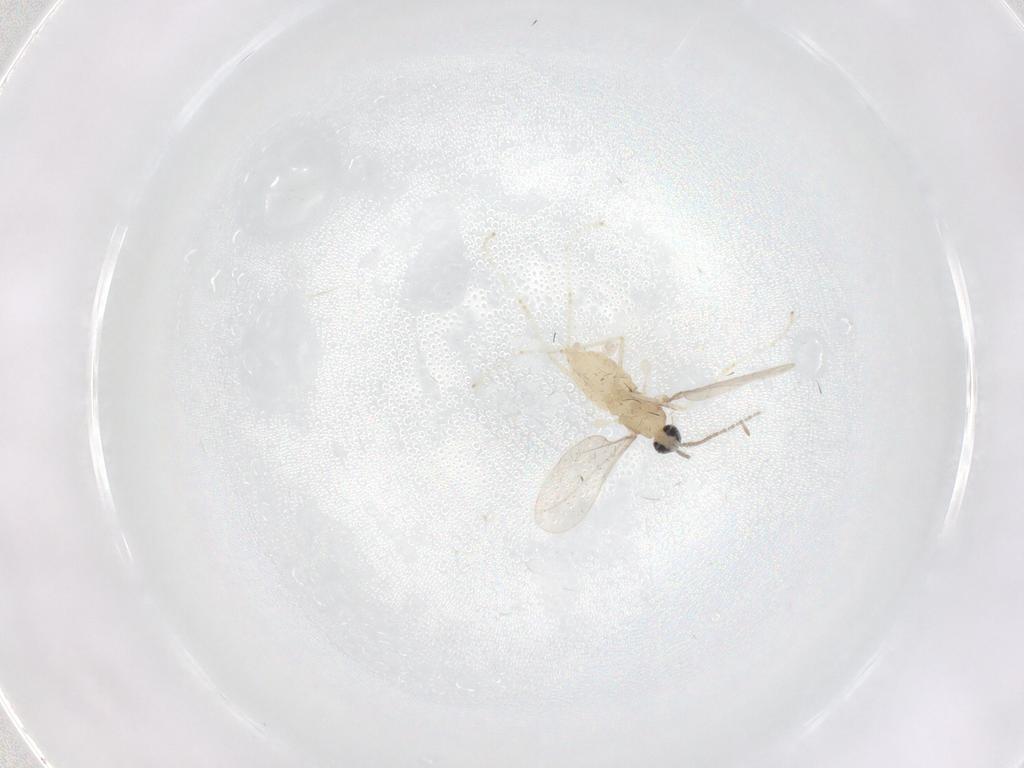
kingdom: Animalia
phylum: Arthropoda
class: Insecta
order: Diptera
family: Cecidomyiidae
